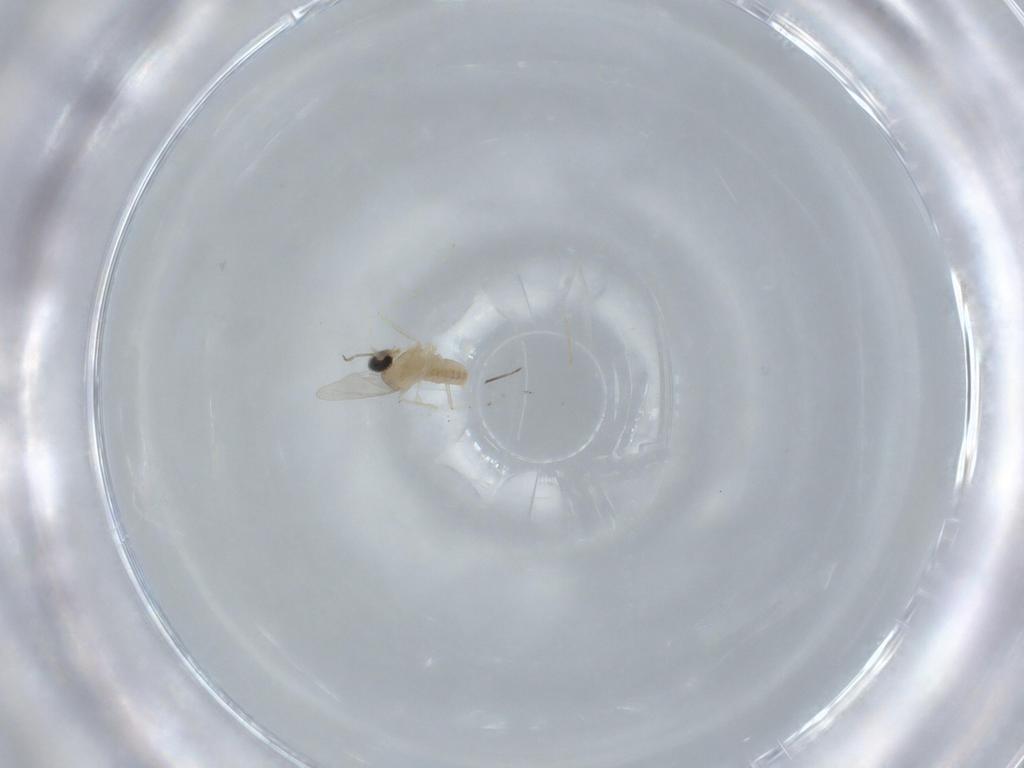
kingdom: Animalia
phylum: Arthropoda
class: Insecta
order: Diptera
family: Cecidomyiidae
